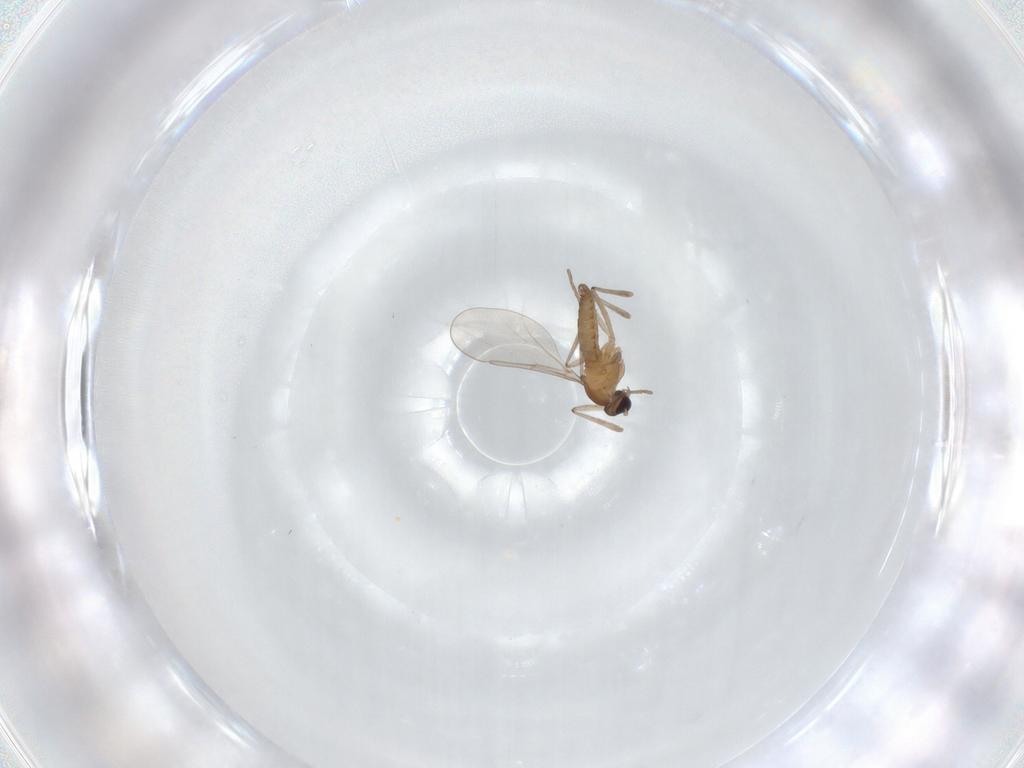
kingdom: Animalia
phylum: Arthropoda
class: Insecta
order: Diptera
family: Cecidomyiidae
